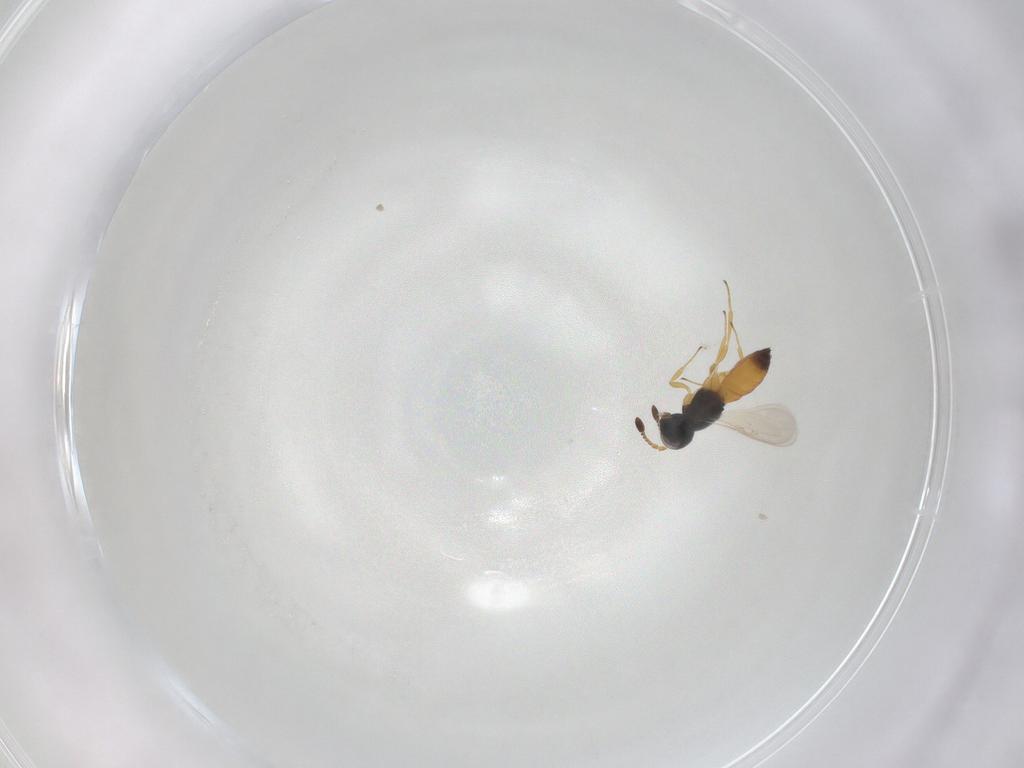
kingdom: Animalia
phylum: Arthropoda
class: Insecta
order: Hymenoptera
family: Scelionidae
